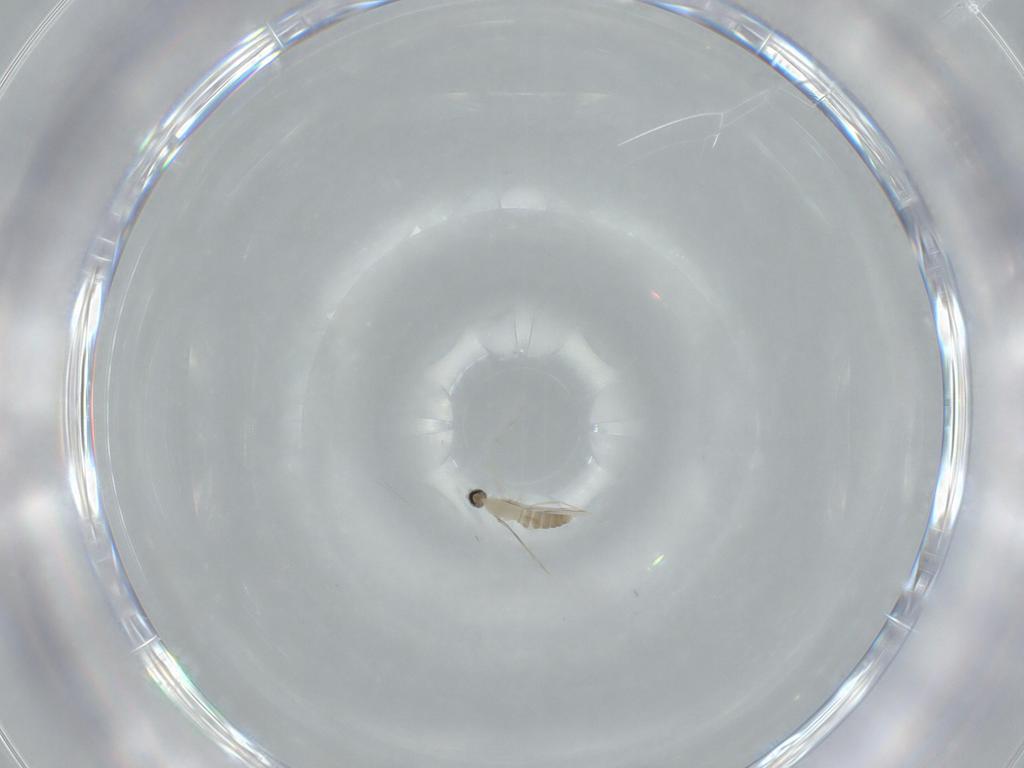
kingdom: Animalia
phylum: Arthropoda
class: Insecta
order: Diptera
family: Cecidomyiidae
